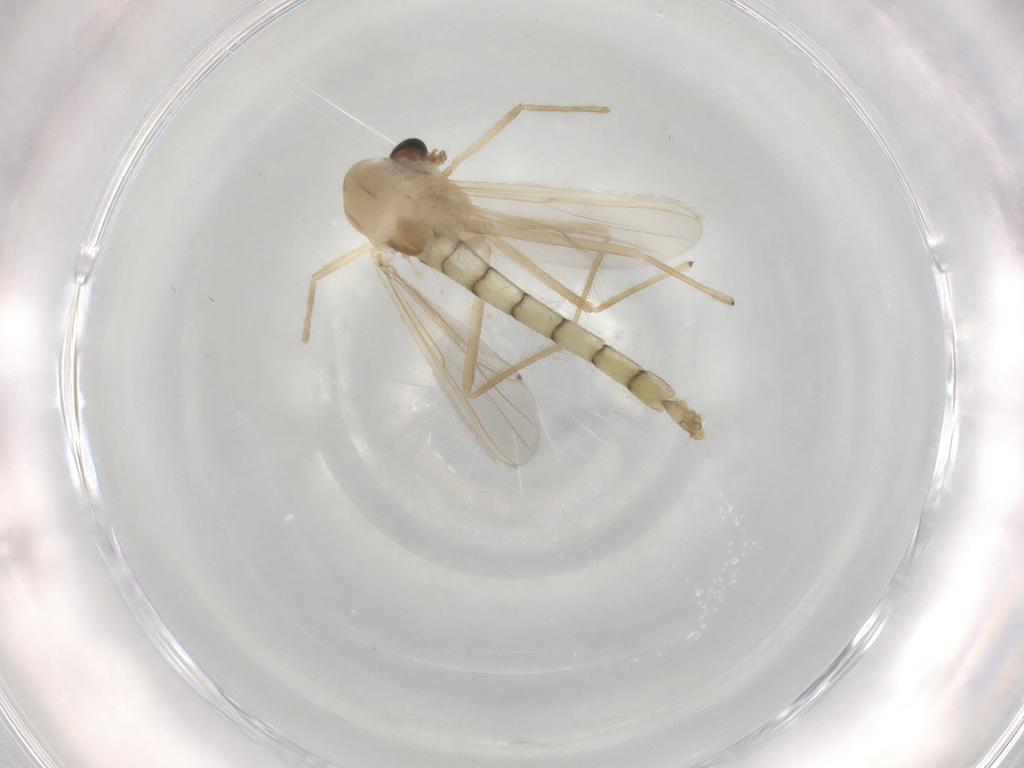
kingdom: Animalia
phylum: Arthropoda
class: Insecta
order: Diptera
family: Chironomidae
